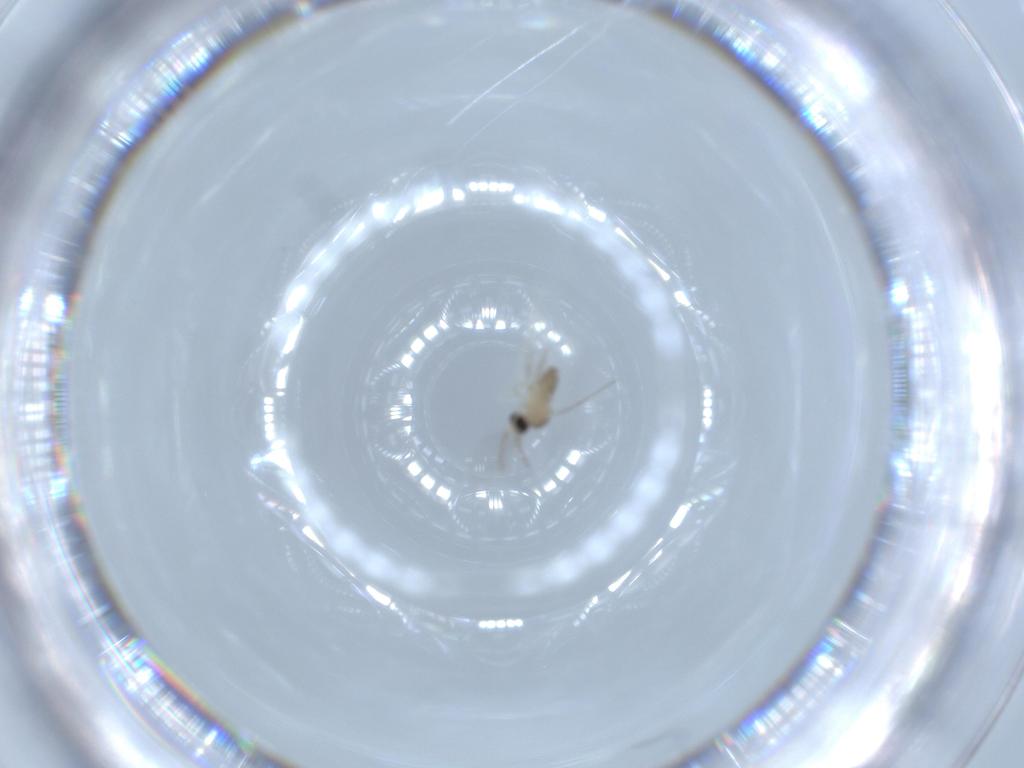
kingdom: Animalia
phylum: Arthropoda
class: Insecta
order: Diptera
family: Cecidomyiidae
